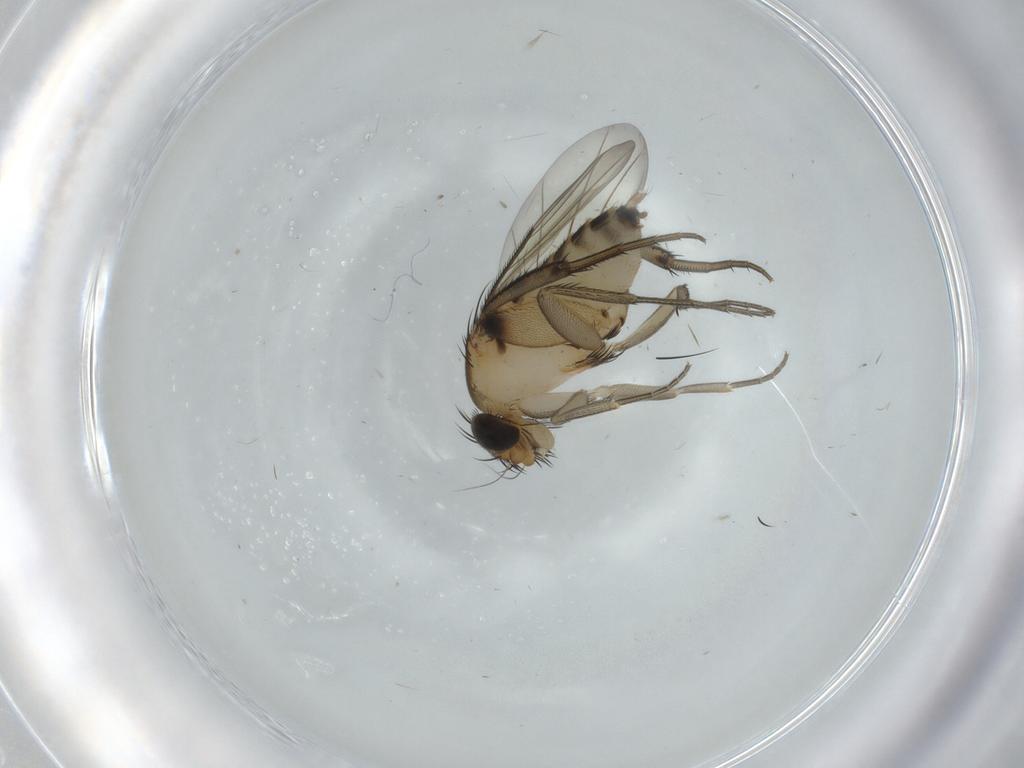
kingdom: Animalia
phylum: Arthropoda
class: Insecta
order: Diptera
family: Phoridae
